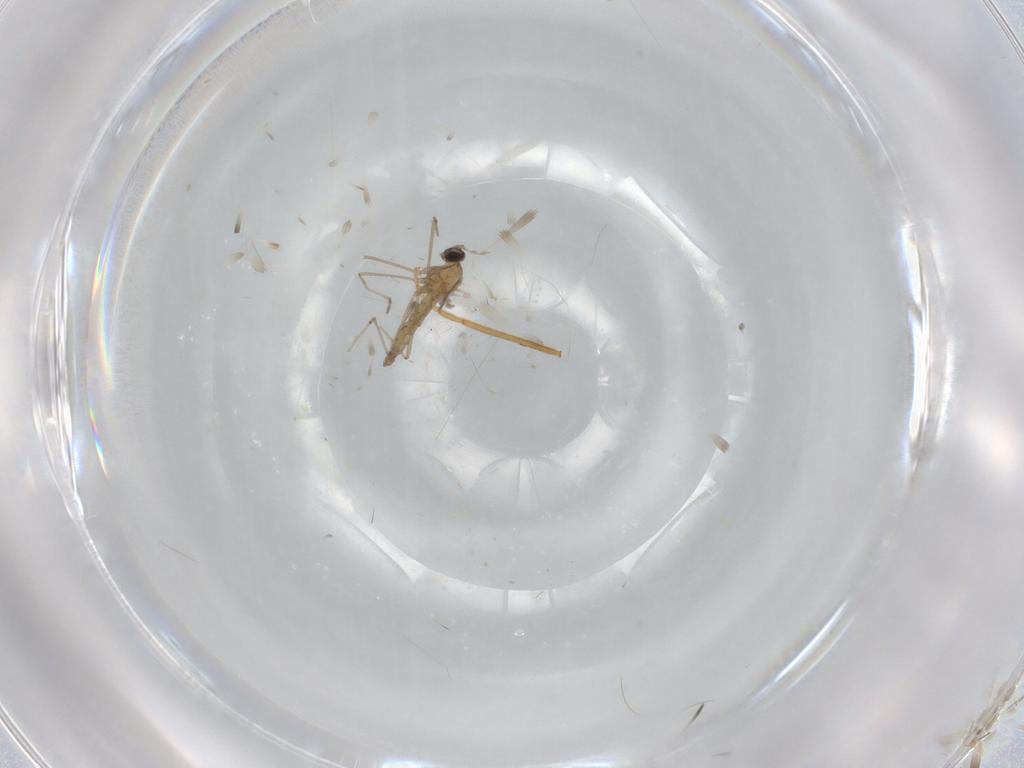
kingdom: Animalia
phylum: Arthropoda
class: Insecta
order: Diptera
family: Cecidomyiidae
